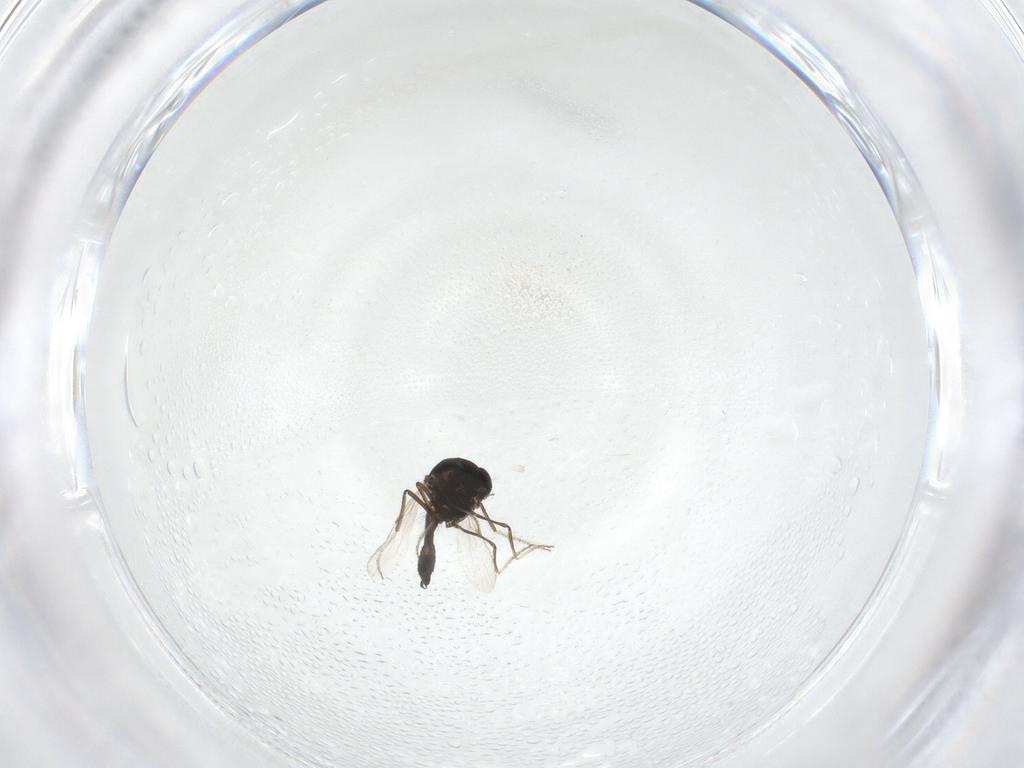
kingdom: Animalia
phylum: Arthropoda
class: Insecta
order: Diptera
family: Ceratopogonidae
